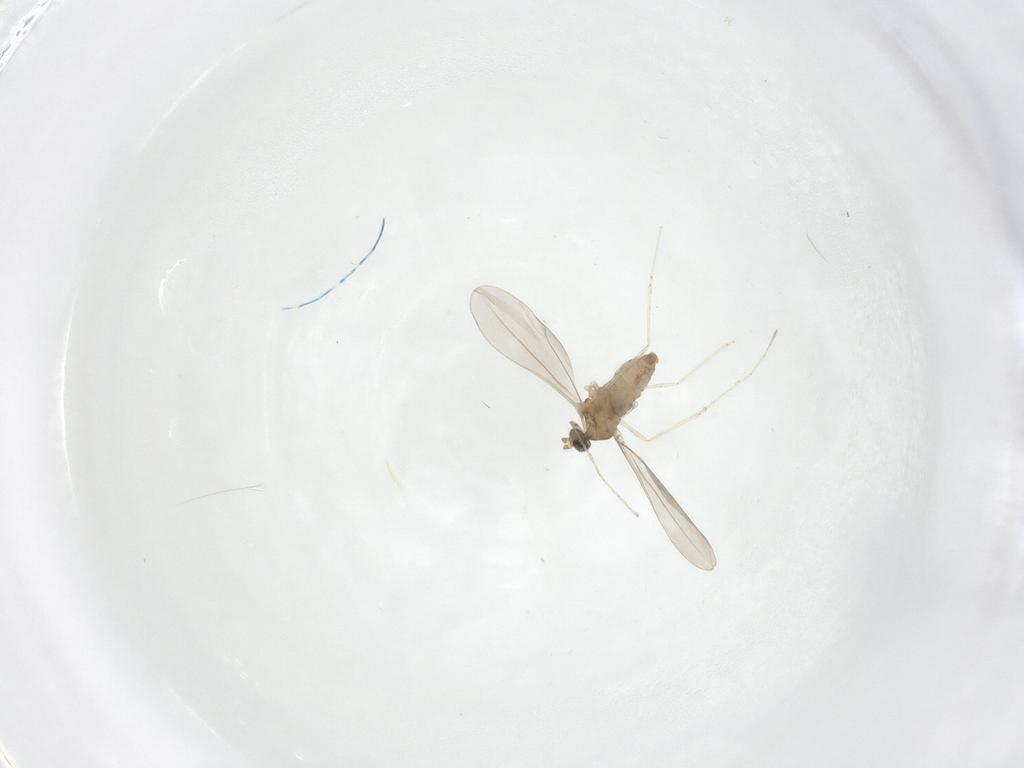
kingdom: Animalia
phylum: Arthropoda
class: Insecta
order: Diptera
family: Cecidomyiidae
